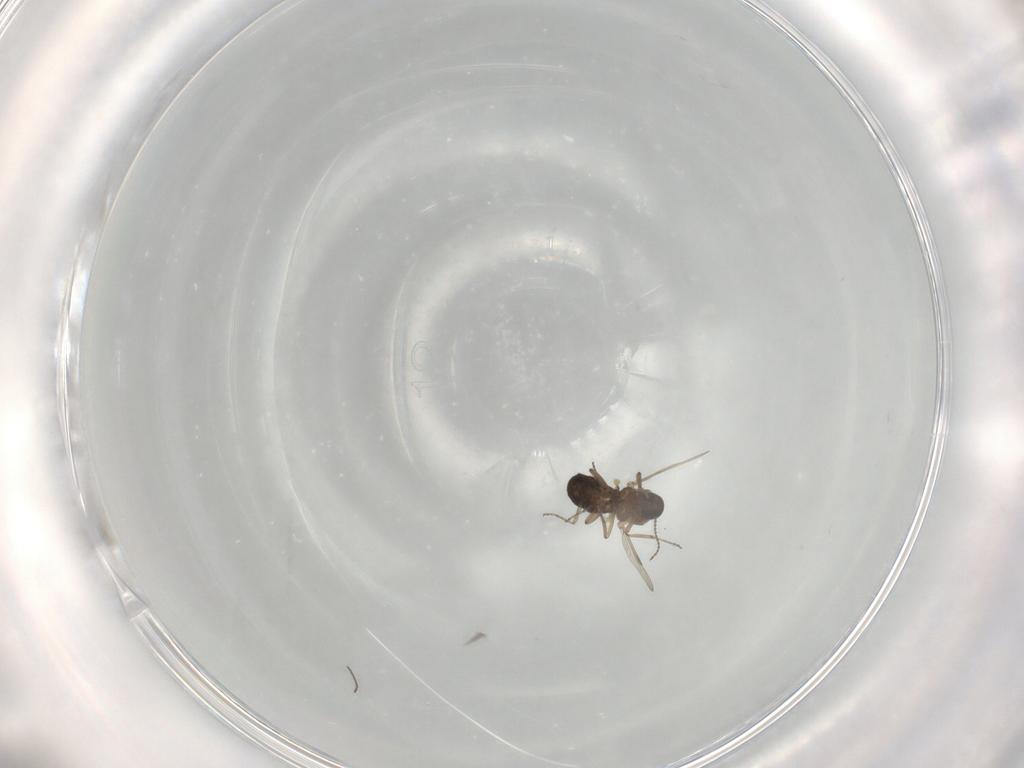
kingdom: Animalia
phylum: Arthropoda
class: Insecta
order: Diptera
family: Ceratopogonidae
